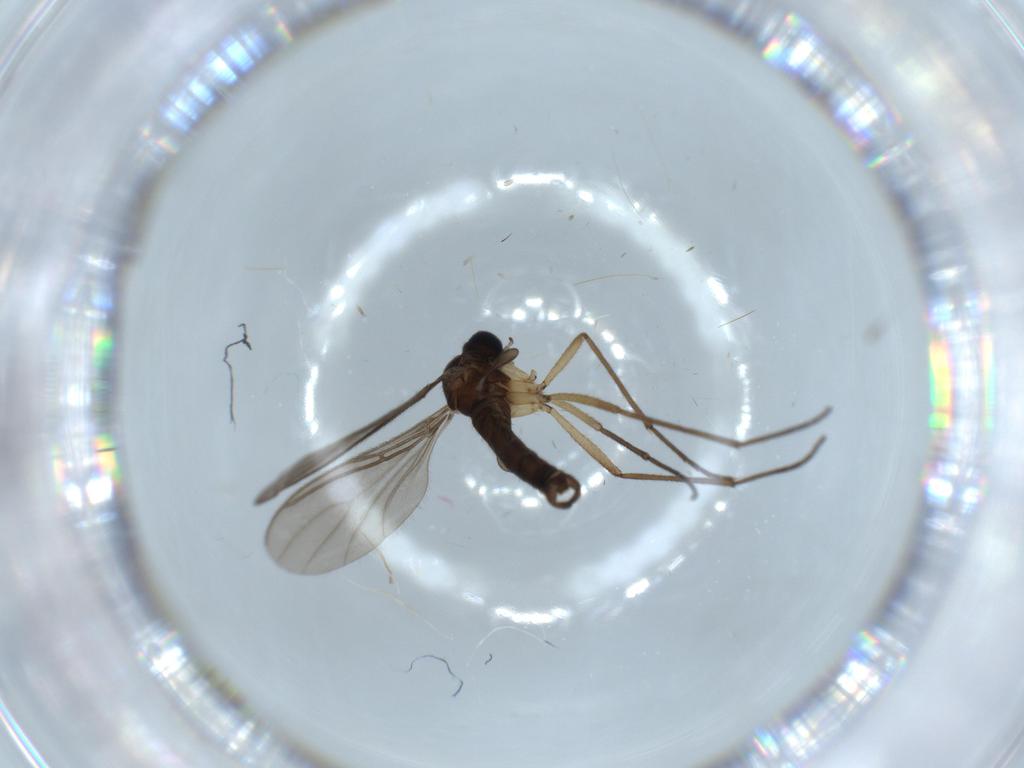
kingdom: Animalia
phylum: Arthropoda
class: Insecta
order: Diptera
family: Sciaridae
